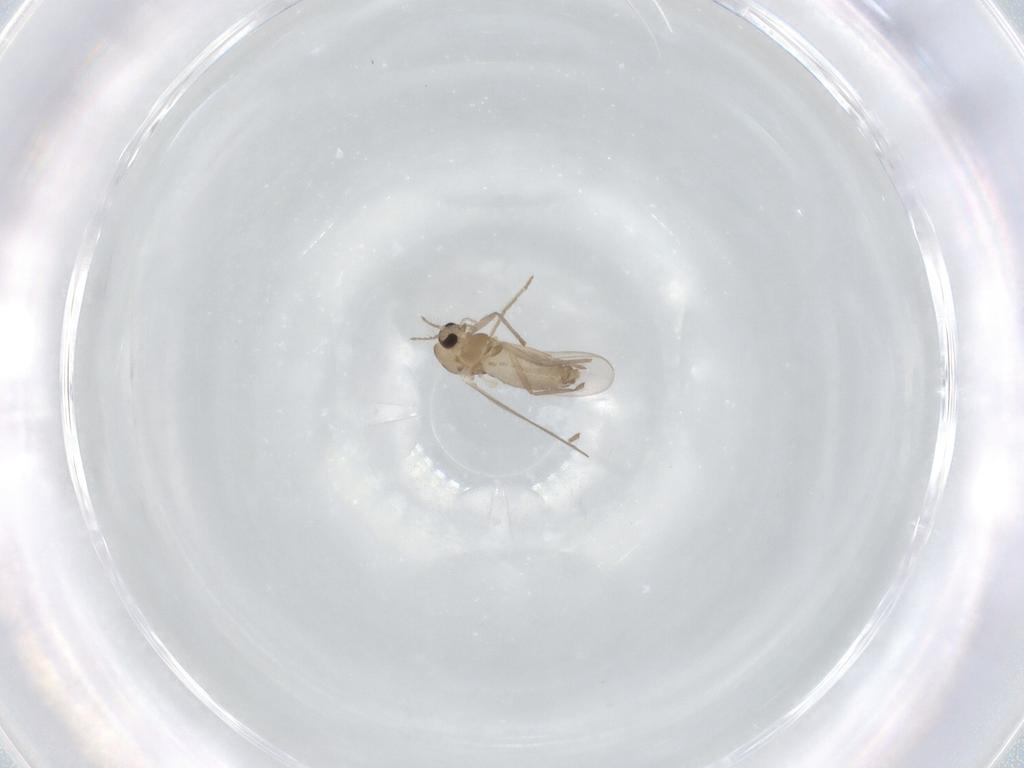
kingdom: Animalia
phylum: Arthropoda
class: Insecta
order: Diptera
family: Chironomidae
